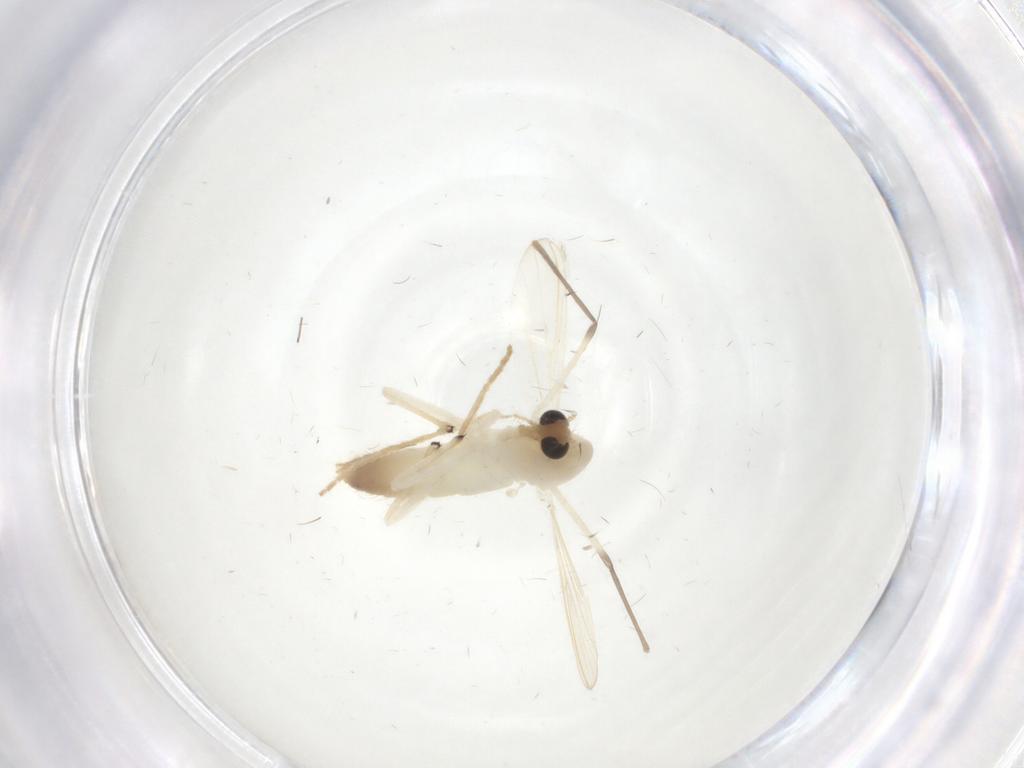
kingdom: Animalia
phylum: Arthropoda
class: Insecta
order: Diptera
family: Chironomidae
